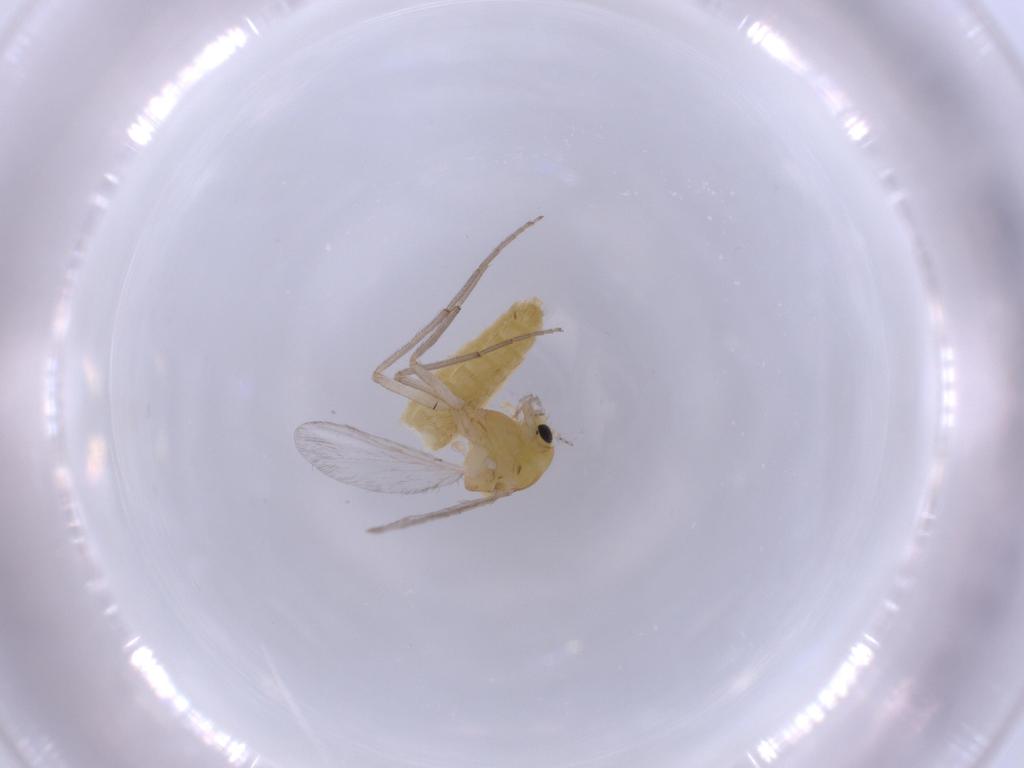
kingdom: Animalia
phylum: Arthropoda
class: Insecta
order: Diptera
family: Chironomidae
